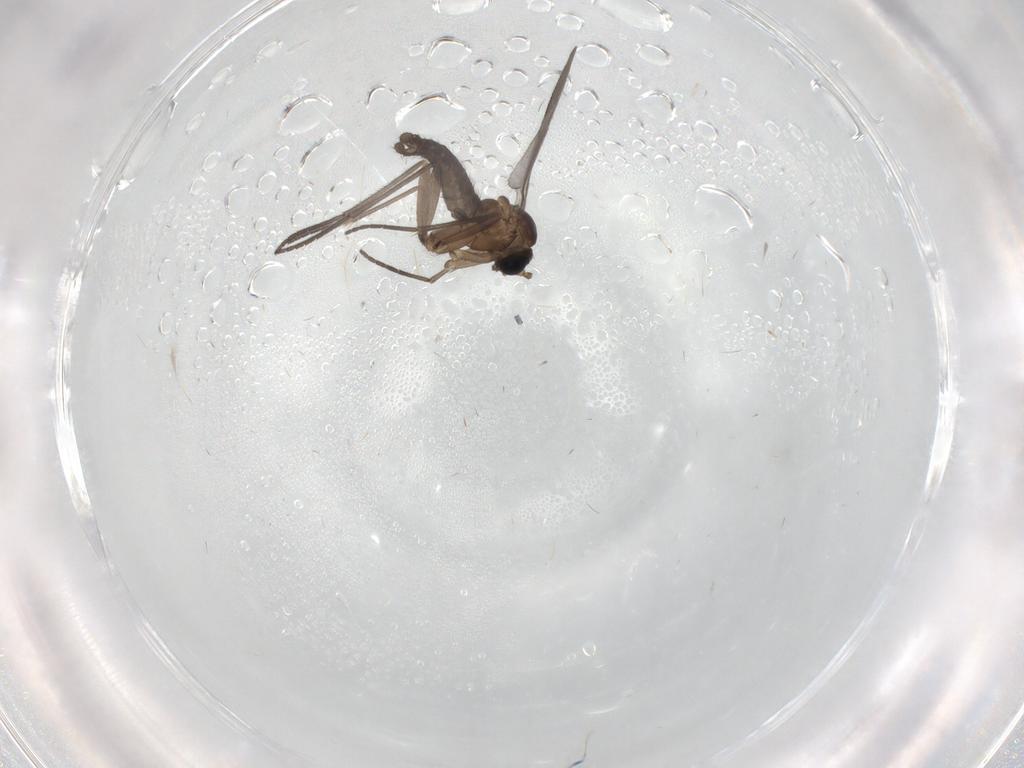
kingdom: Animalia
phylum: Arthropoda
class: Insecta
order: Diptera
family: Sciaridae
